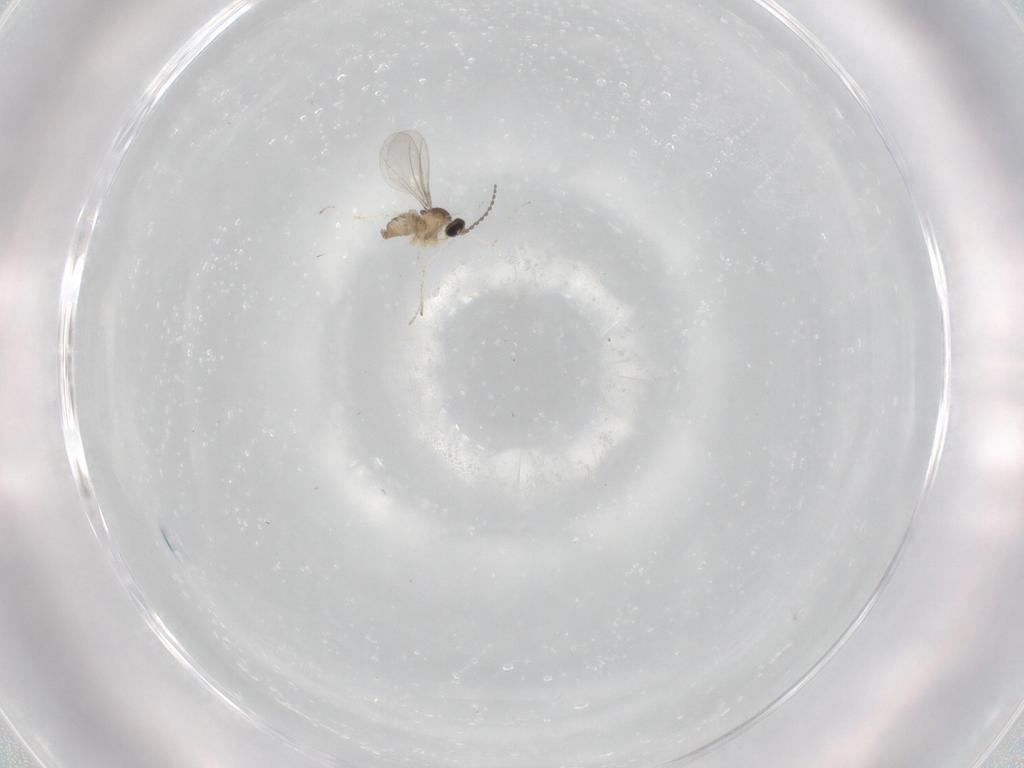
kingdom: Animalia
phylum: Arthropoda
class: Insecta
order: Diptera
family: Cecidomyiidae
